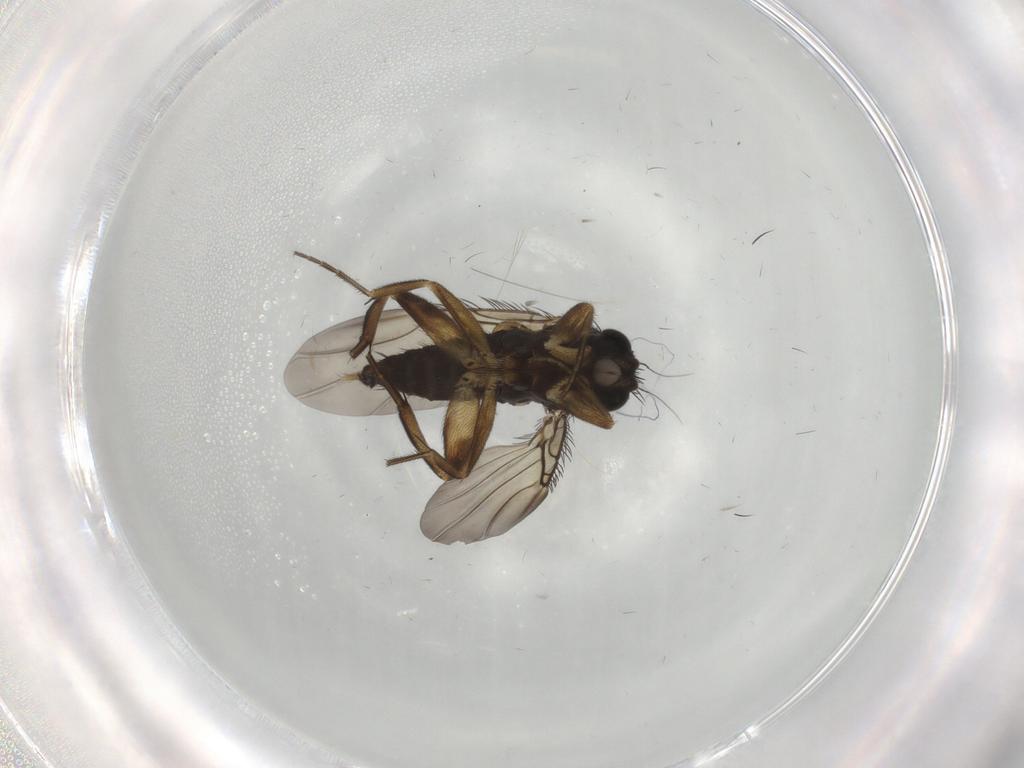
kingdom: Animalia
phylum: Arthropoda
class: Insecta
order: Diptera
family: Phoridae
